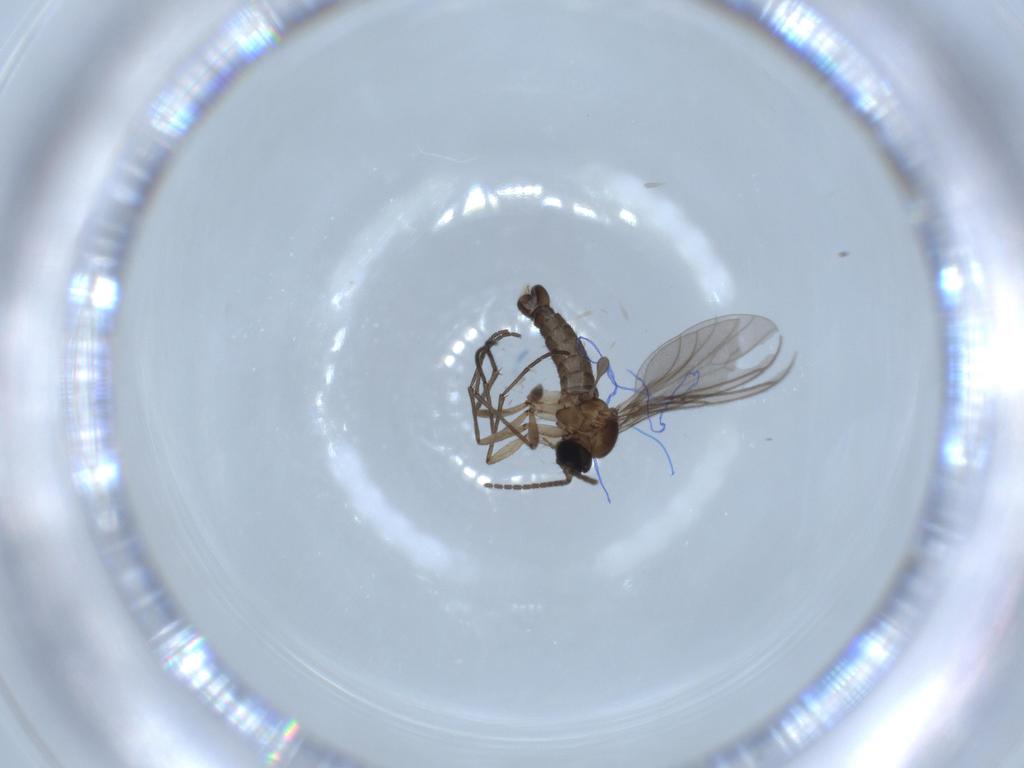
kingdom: Animalia
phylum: Arthropoda
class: Insecta
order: Diptera
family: Sciaridae
